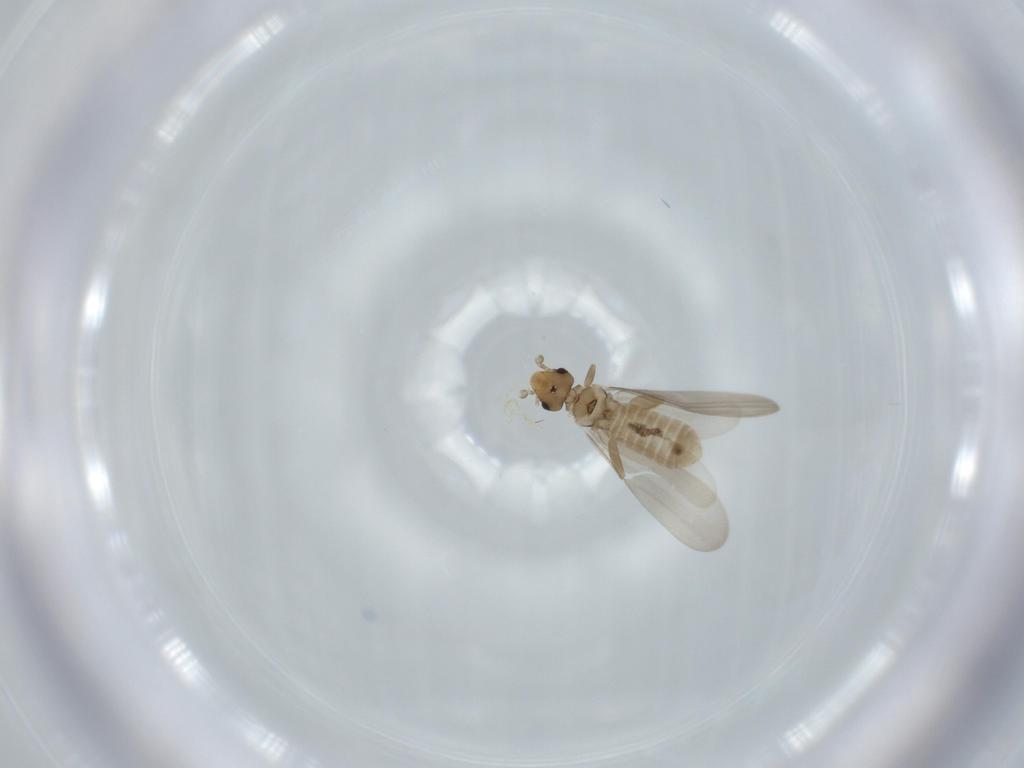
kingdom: Animalia
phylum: Arthropoda
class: Insecta
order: Psocodea
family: Liposcelididae
